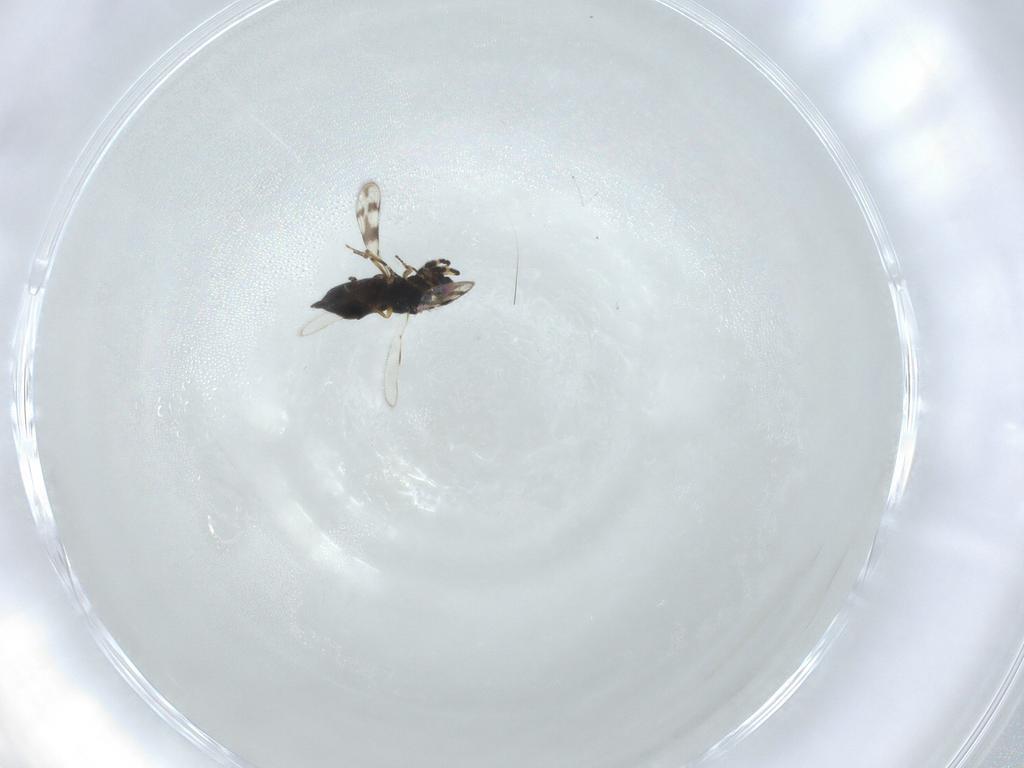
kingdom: Animalia
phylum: Arthropoda
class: Insecta
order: Hymenoptera
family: Eulophidae
